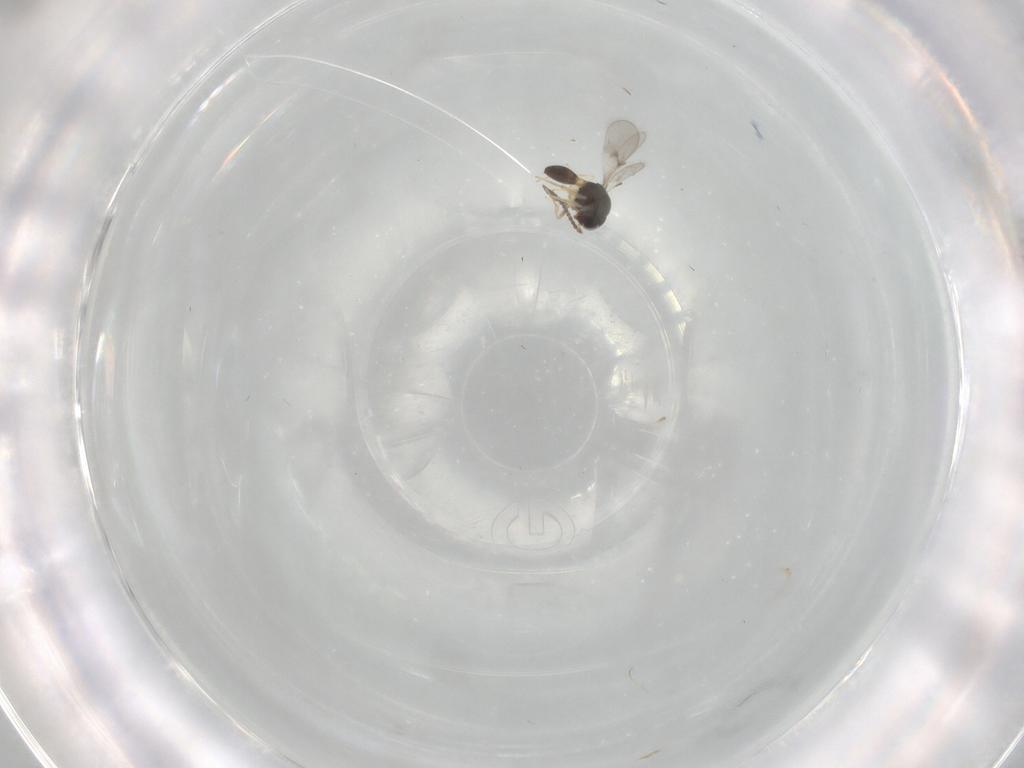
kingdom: Animalia
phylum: Arthropoda
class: Insecta
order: Hymenoptera
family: Scelionidae
